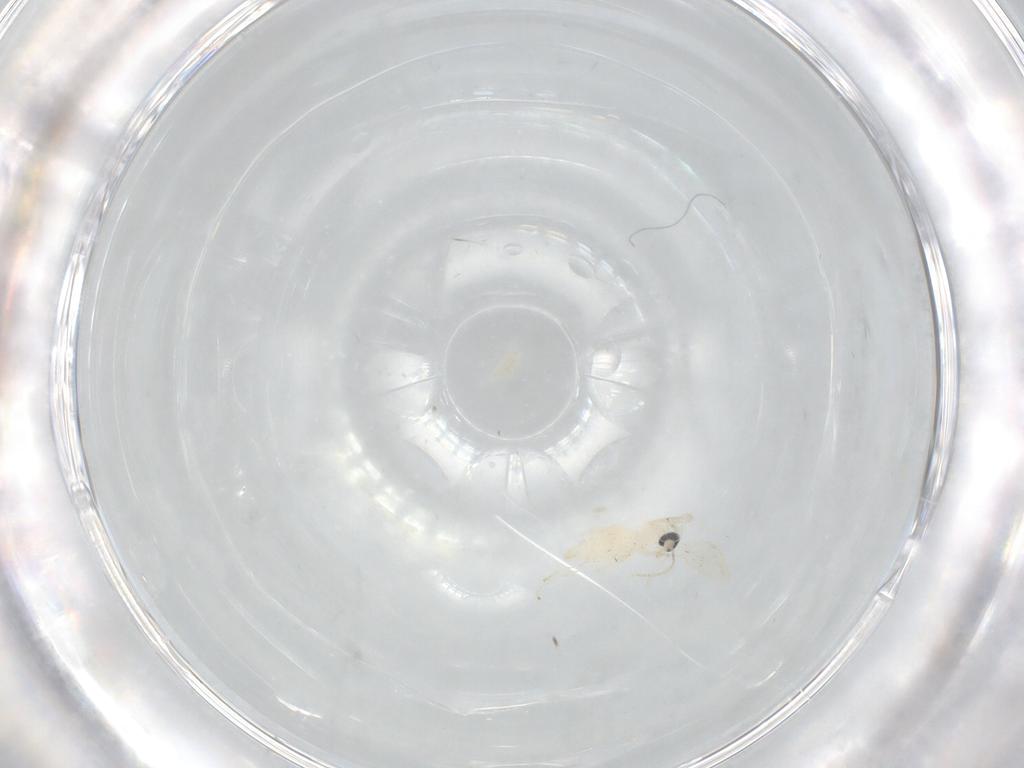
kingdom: Animalia
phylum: Arthropoda
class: Insecta
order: Diptera
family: Cecidomyiidae
